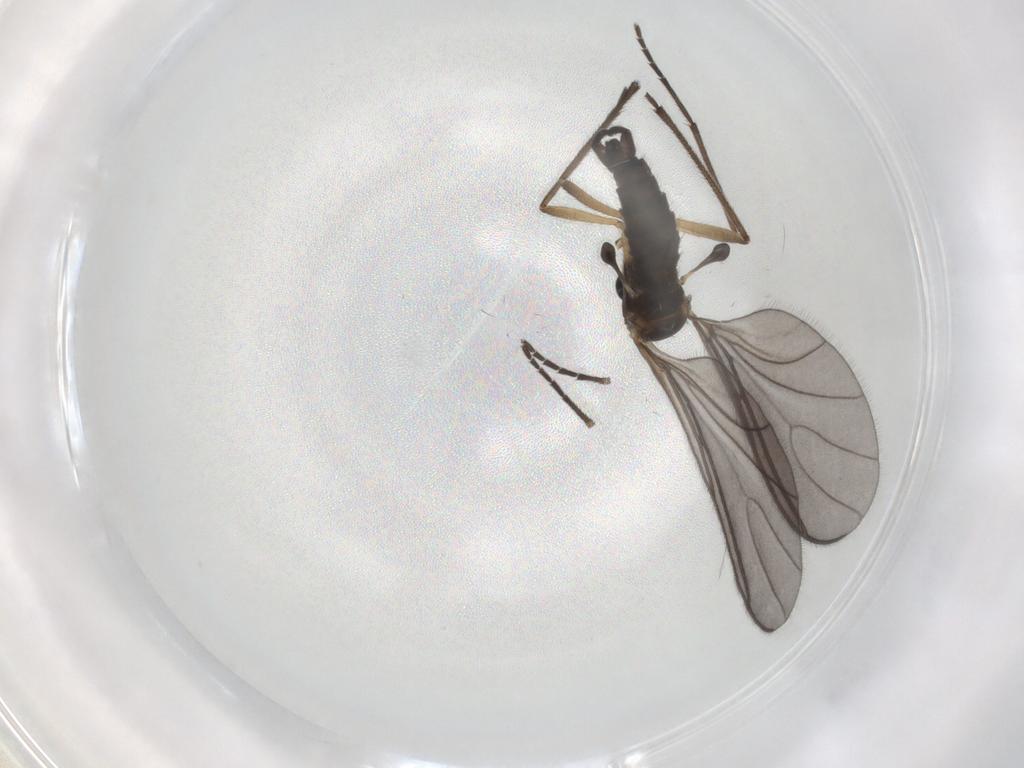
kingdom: Animalia
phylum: Arthropoda
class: Insecta
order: Diptera
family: Sciaridae
